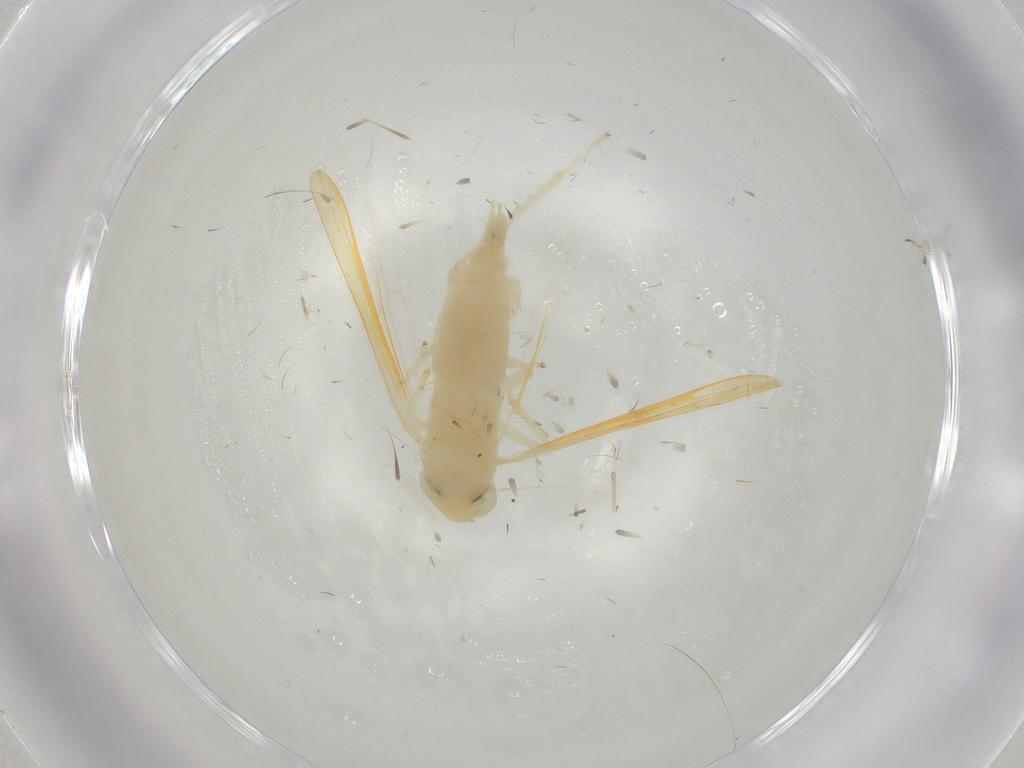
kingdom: Animalia
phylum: Arthropoda
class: Insecta
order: Hemiptera
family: Cicadellidae
